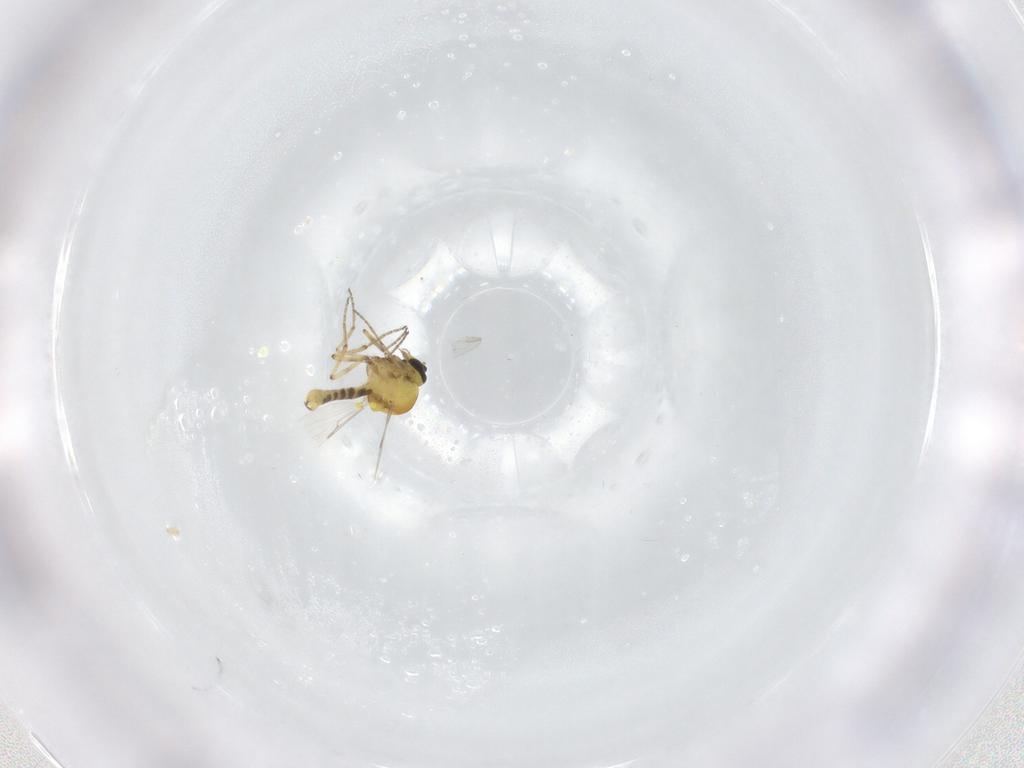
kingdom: Animalia
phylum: Arthropoda
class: Insecta
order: Diptera
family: Ceratopogonidae
